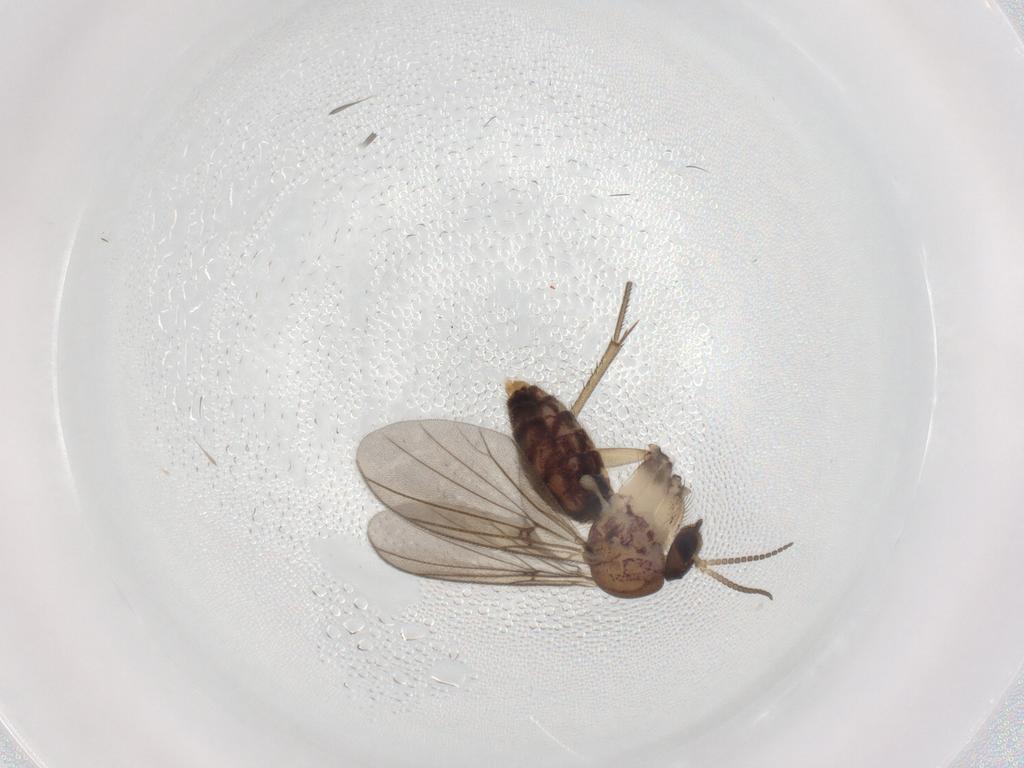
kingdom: Animalia
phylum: Arthropoda
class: Insecta
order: Diptera
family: Mycetophilidae
